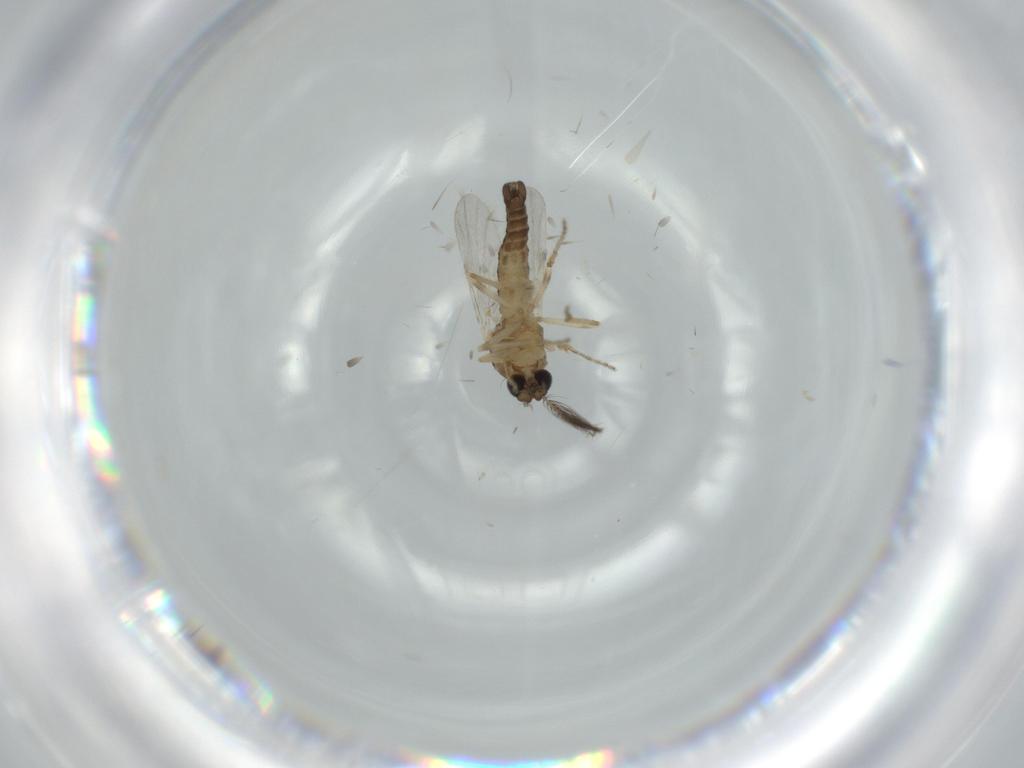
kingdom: Animalia
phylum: Arthropoda
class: Insecta
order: Diptera
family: Ceratopogonidae
